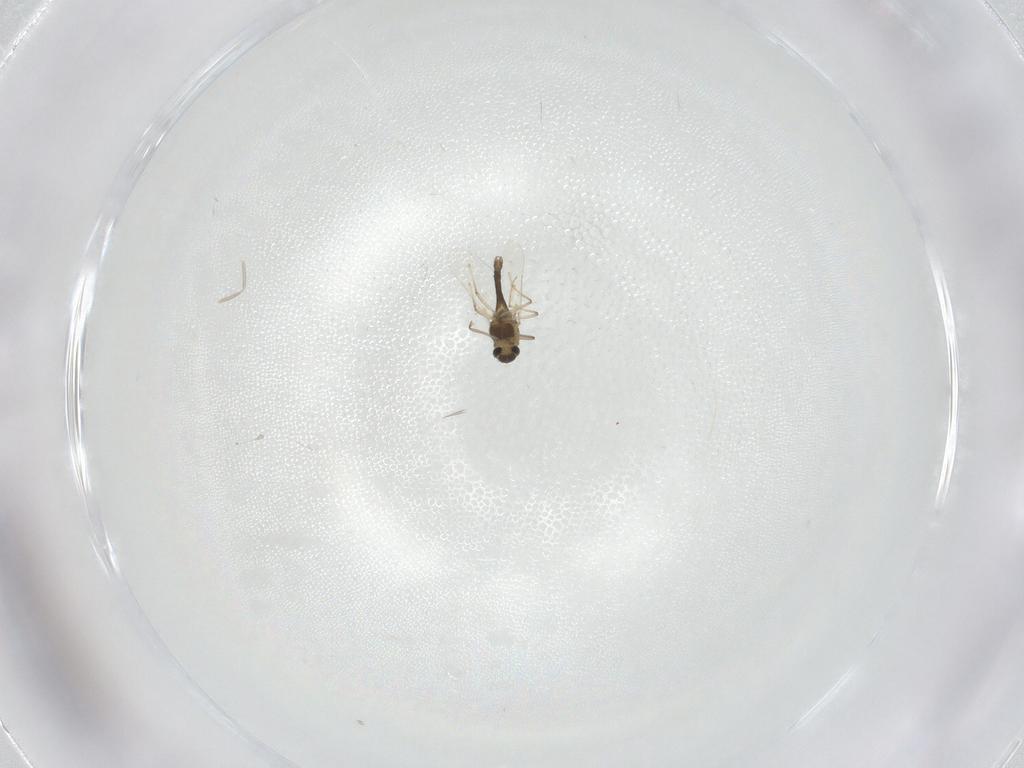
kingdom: Animalia
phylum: Arthropoda
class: Insecta
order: Diptera
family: Chironomidae
